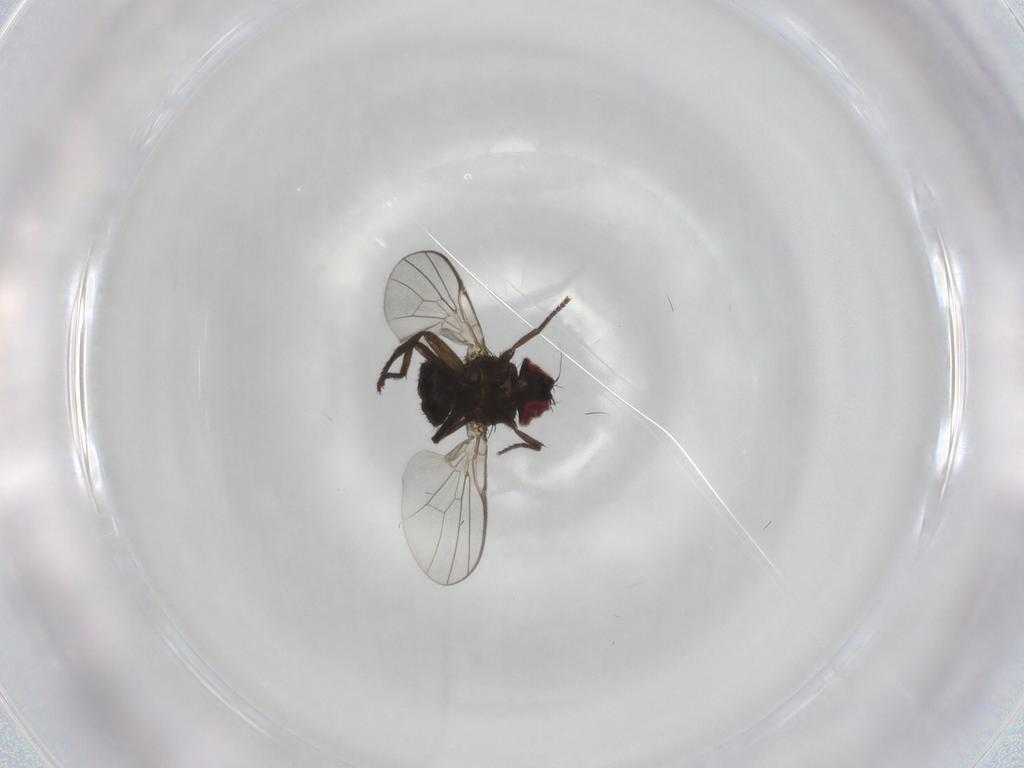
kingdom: Animalia
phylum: Arthropoda
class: Insecta
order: Diptera
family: Agromyzidae
